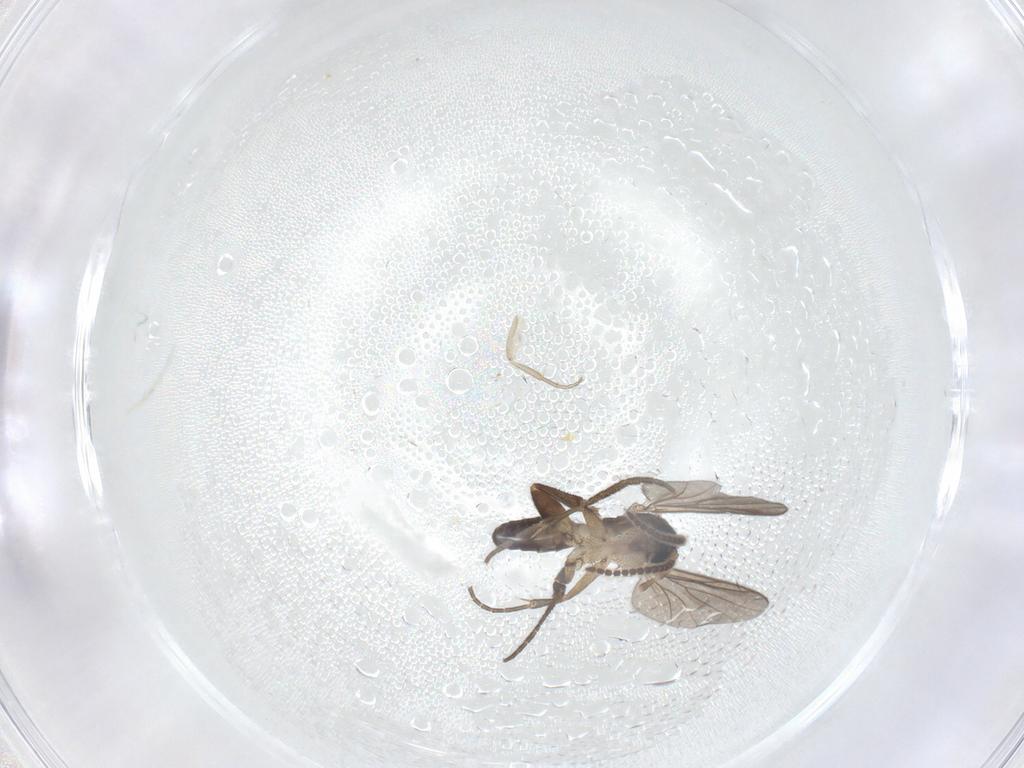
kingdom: Animalia
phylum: Arthropoda
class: Insecta
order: Diptera
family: Phoridae
